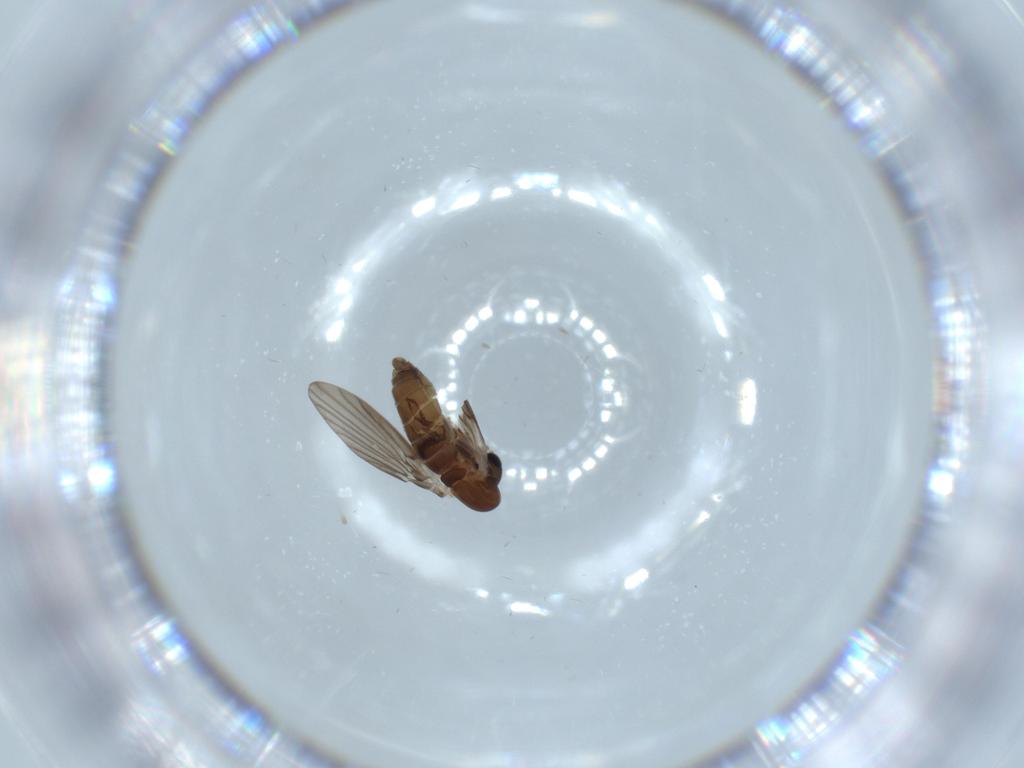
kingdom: Animalia
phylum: Arthropoda
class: Insecta
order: Diptera
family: Psychodidae
